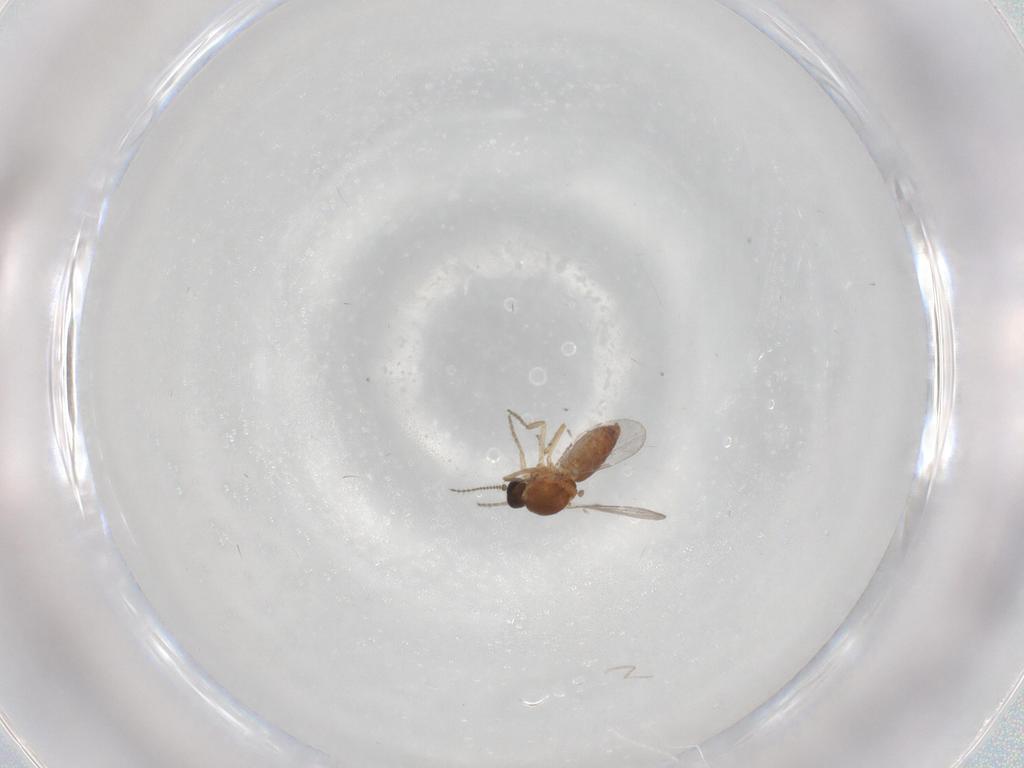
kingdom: Animalia
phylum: Arthropoda
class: Insecta
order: Diptera
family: Ceratopogonidae
